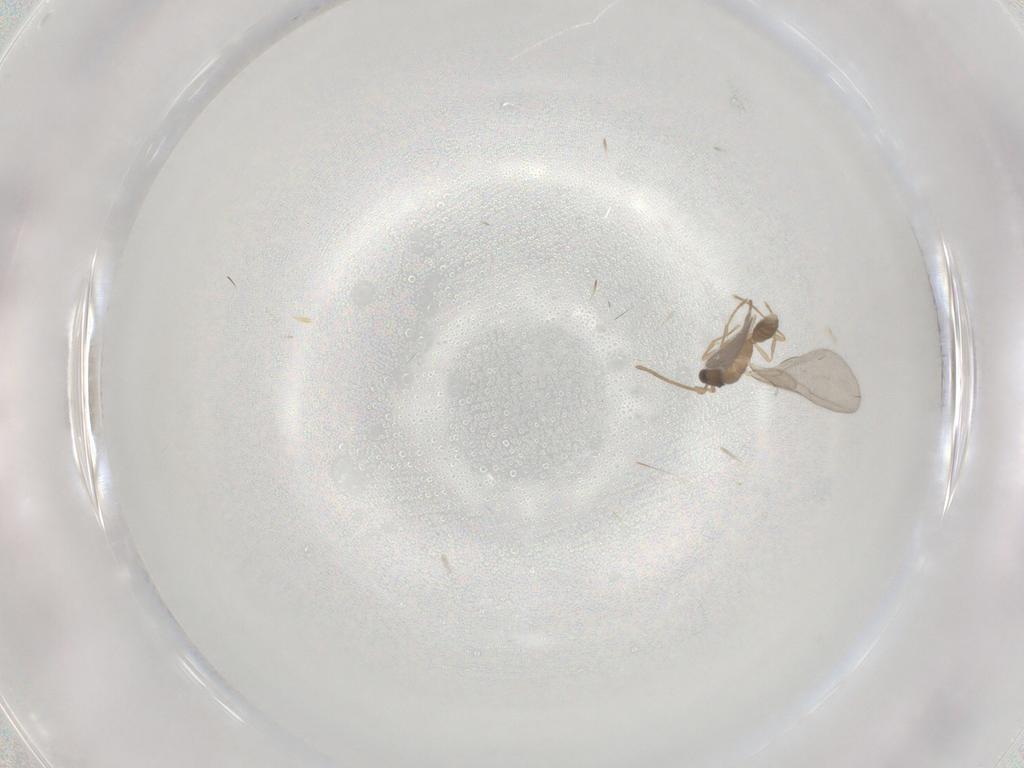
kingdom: Animalia
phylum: Arthropoda
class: Insecta
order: Hymenoptera
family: Formicidae
